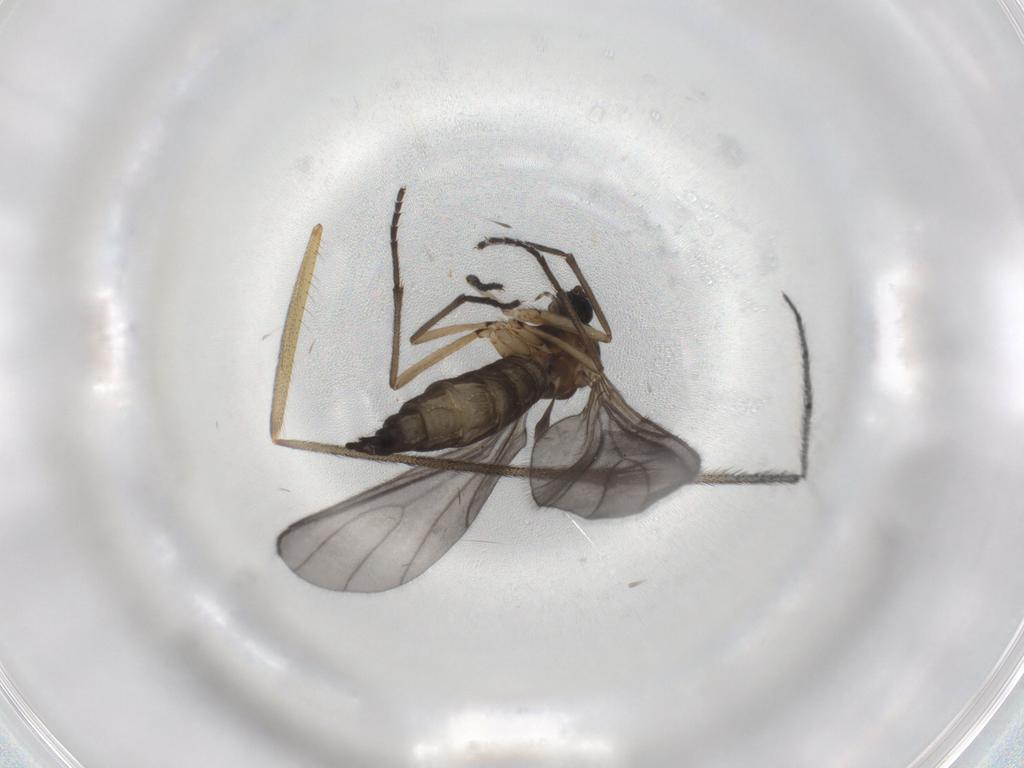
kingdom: Animalia
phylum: Arthropoda
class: Insecta
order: Diptera
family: Sciaridae
